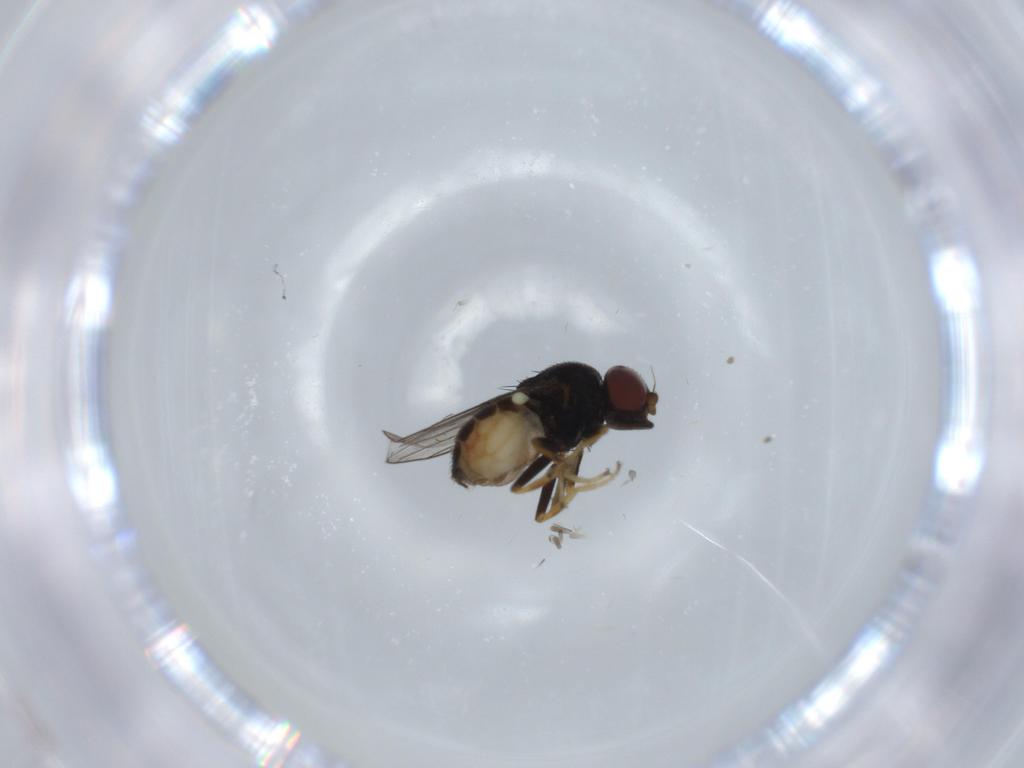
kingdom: Animalia
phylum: Arthropoda
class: Insecta
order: Diptera
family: Chloropidae
